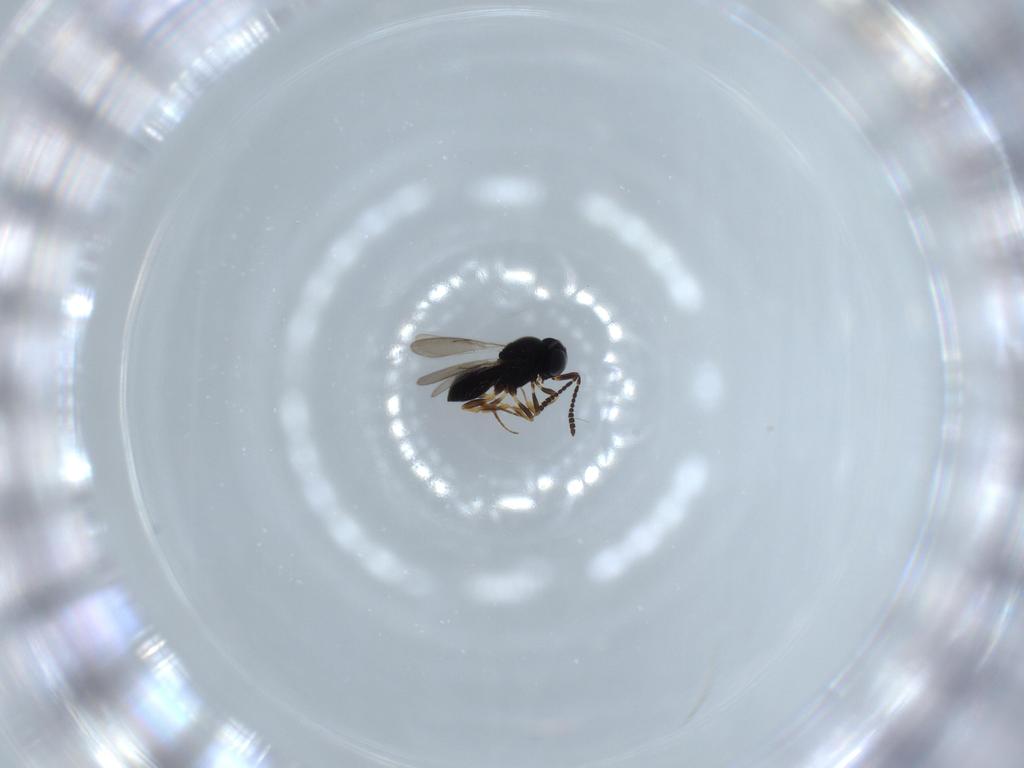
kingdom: Animalia
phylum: Arthropoda
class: Insecta
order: Hymenoptera
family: Scelionidae
